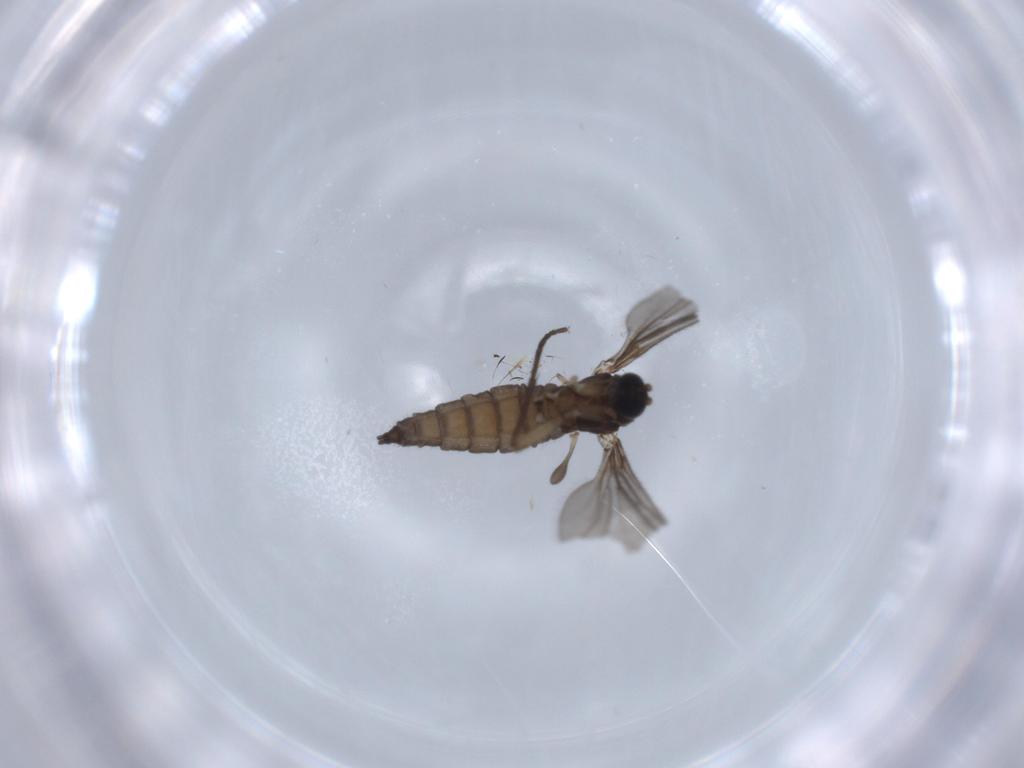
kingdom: Animalia
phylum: Arthropoda
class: Insecta
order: Diptera
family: Sciaridae
